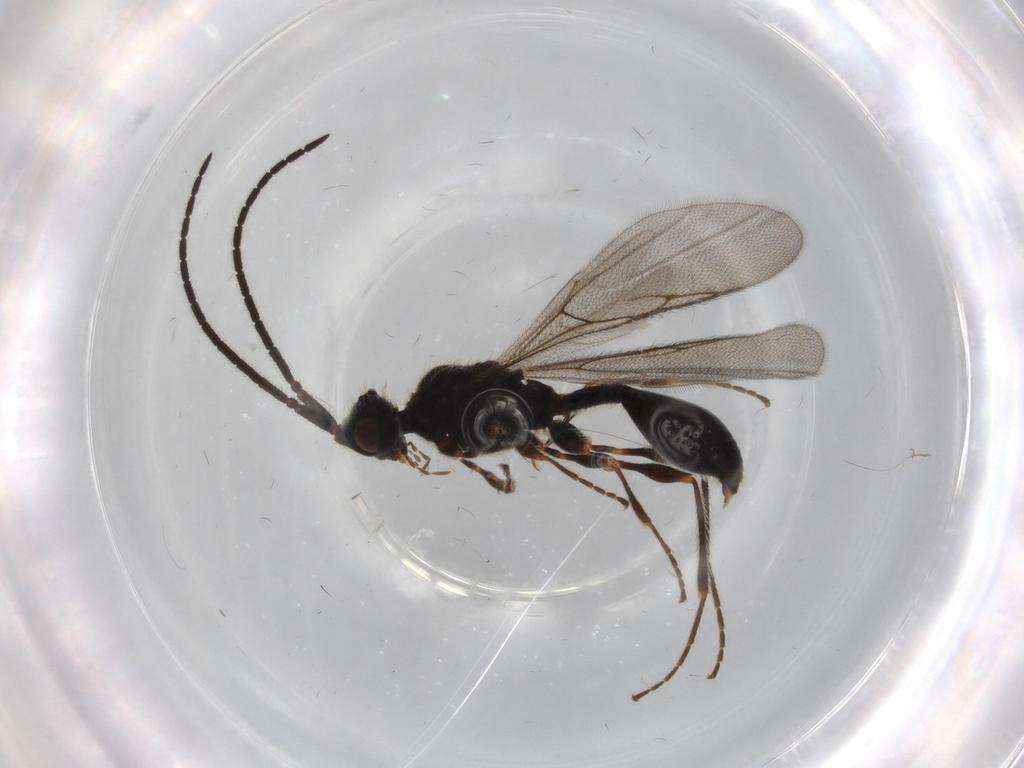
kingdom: Animalia
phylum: Arthropoda
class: Insecta
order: Hymenoptera
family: Diapriidae
